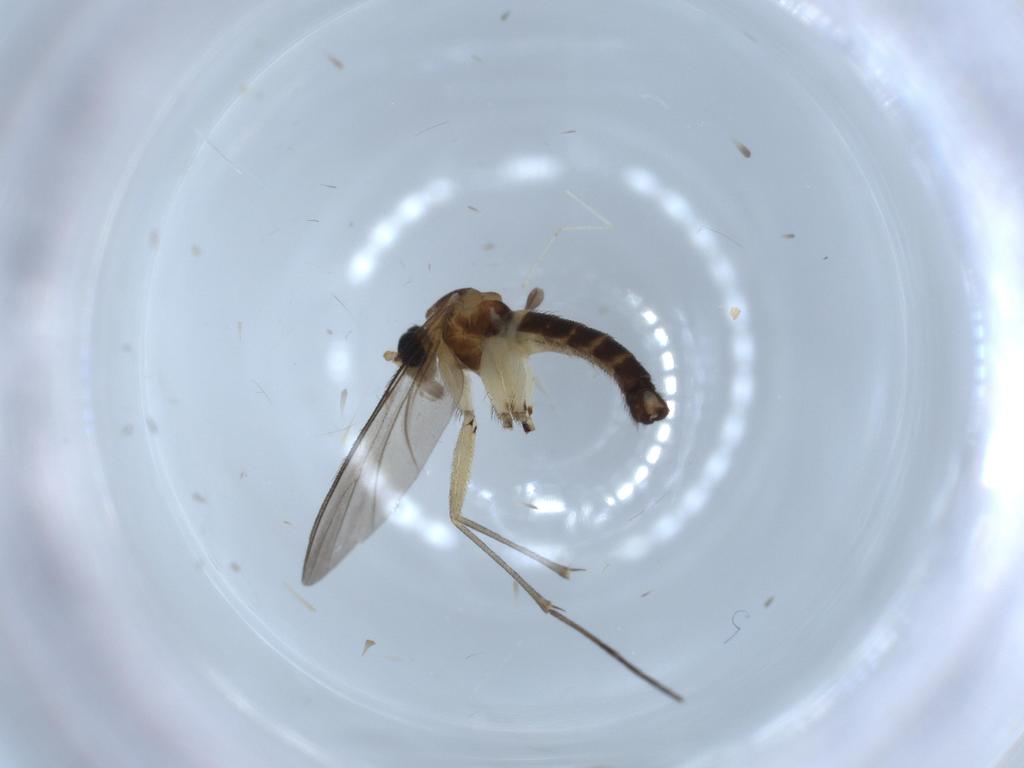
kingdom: Animalia
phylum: Arthropoda
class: Insecta
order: Diptera
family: Sciaridae
